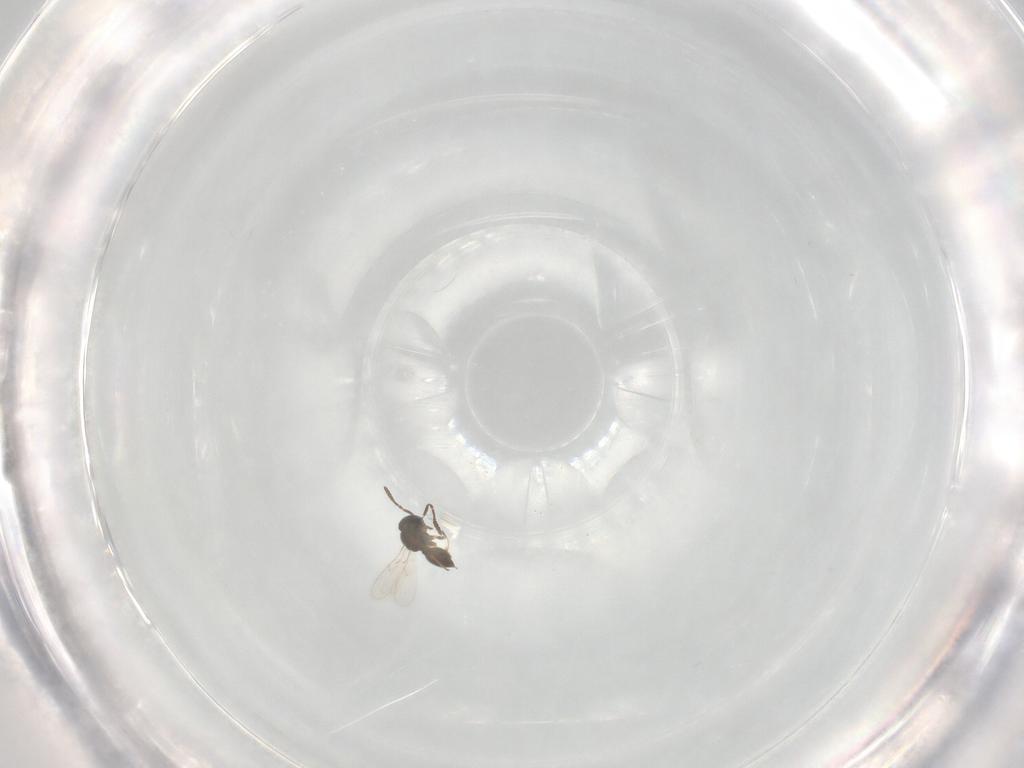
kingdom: Animalia
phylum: Arthropoda
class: Insecta
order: Hymenoptera
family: Scelionidae
